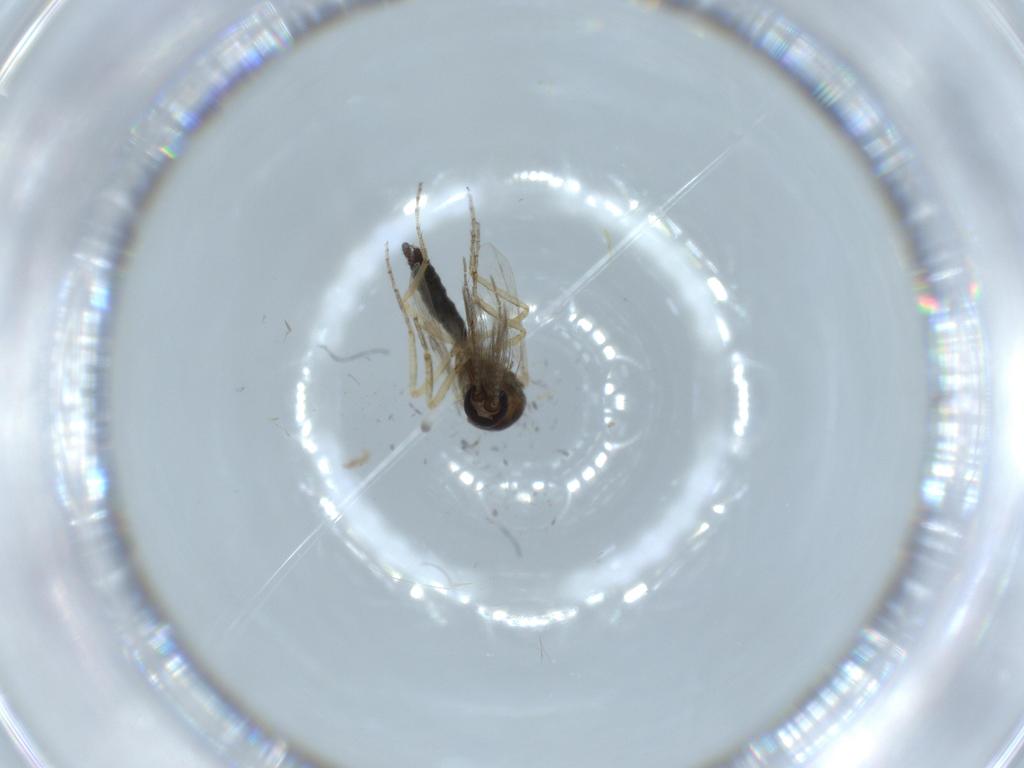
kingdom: Animalia
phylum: Arthropoda
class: Insecta
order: Diptera
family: Ceratopogonidae
